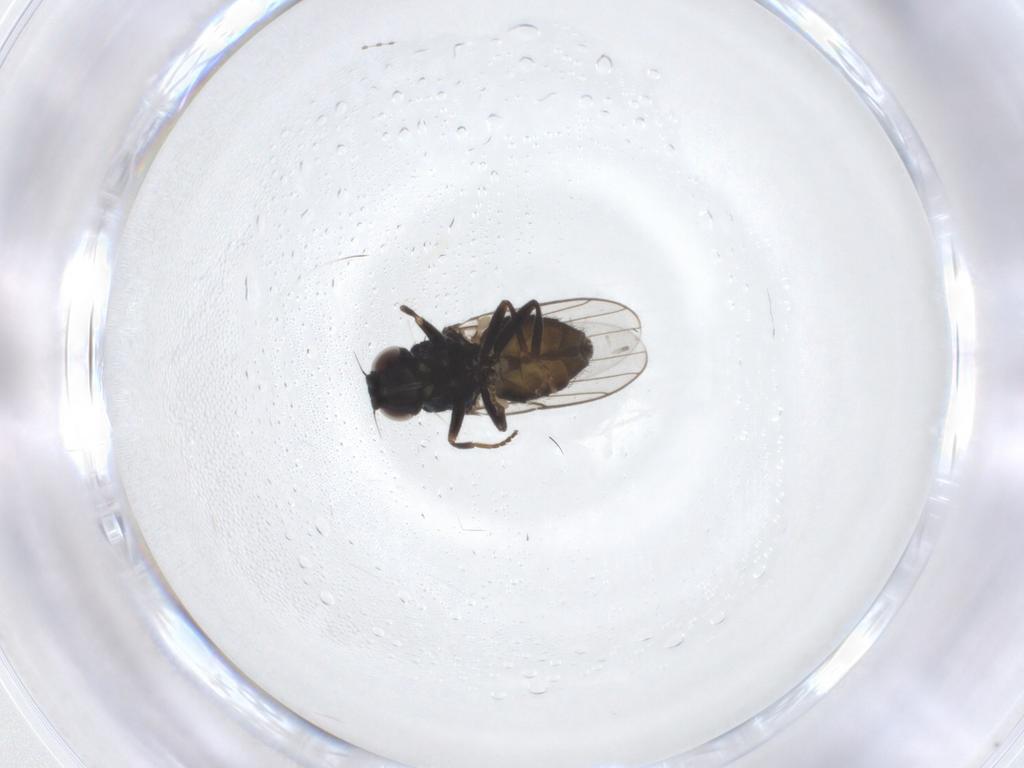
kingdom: Animalia
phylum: Arthropoda
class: Insecta
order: Diptera
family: Chloropidae
